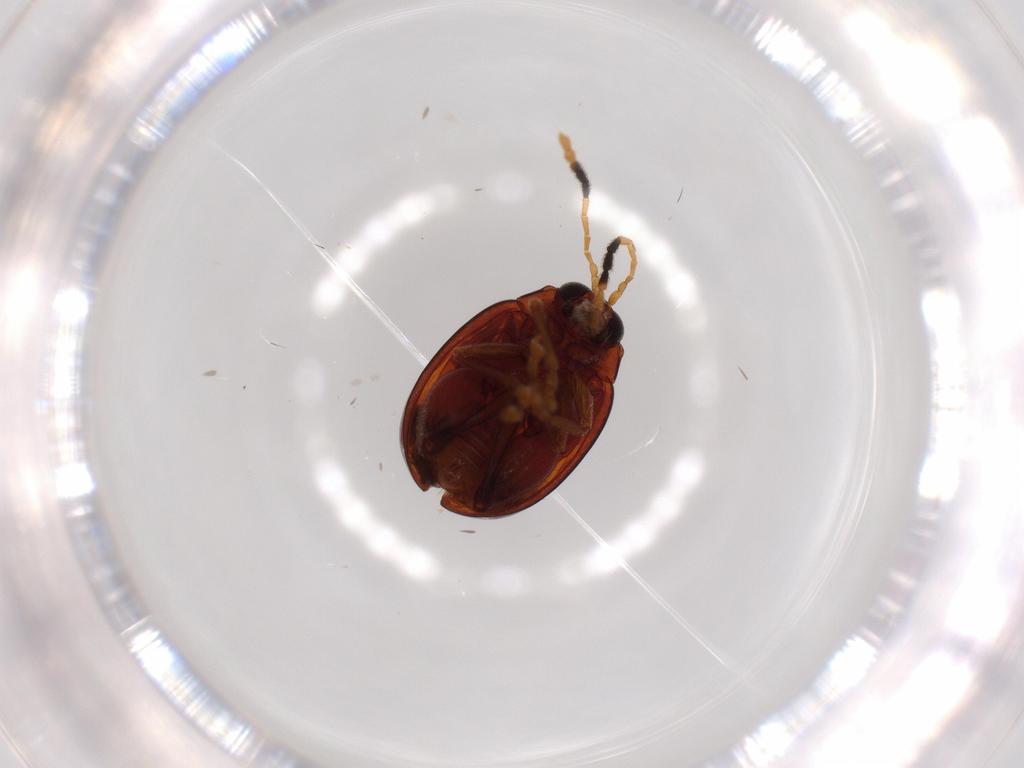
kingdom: Animalia
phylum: Arthropoda
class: Insecta
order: Coleoptera
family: Chrysomelidae
